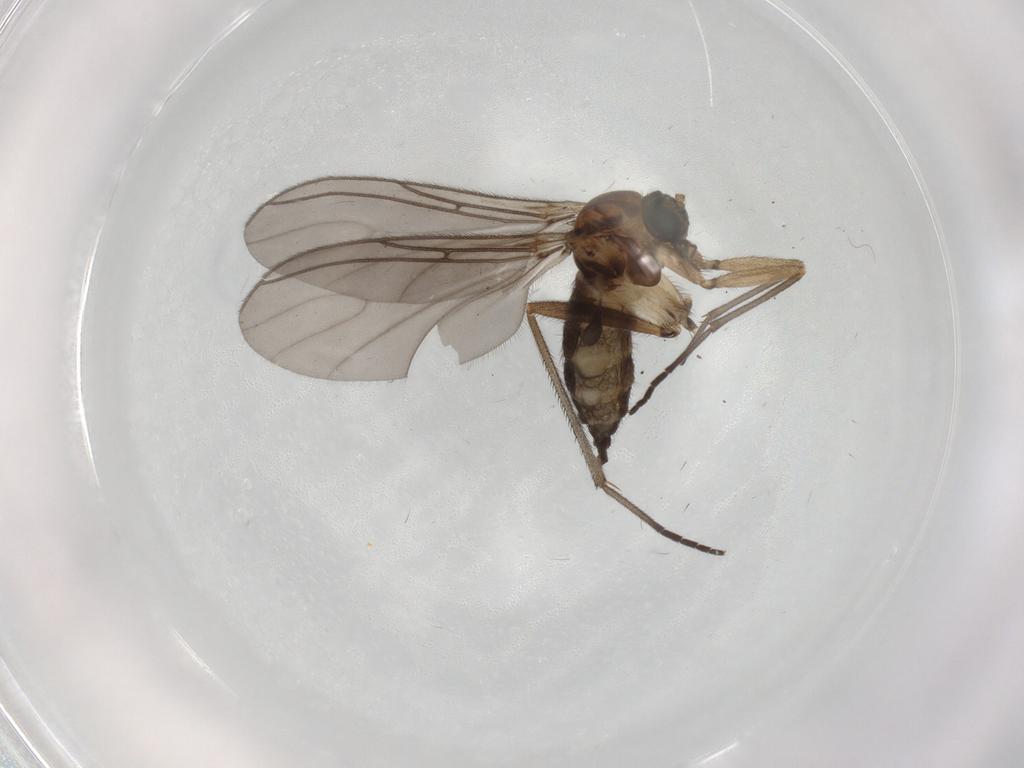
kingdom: Animalia
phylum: Arthropoda
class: Insecta
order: Diptera
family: Sciaridae
